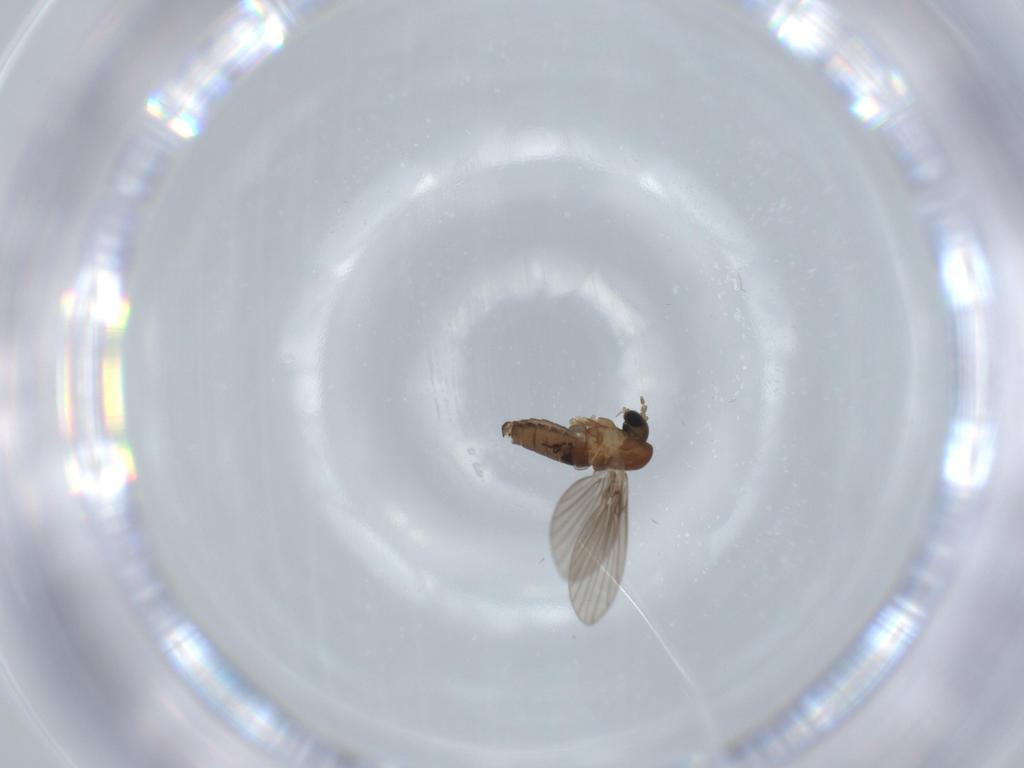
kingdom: Animalia
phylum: Arthropoda
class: Insecta
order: Diptera
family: Psychodidae
